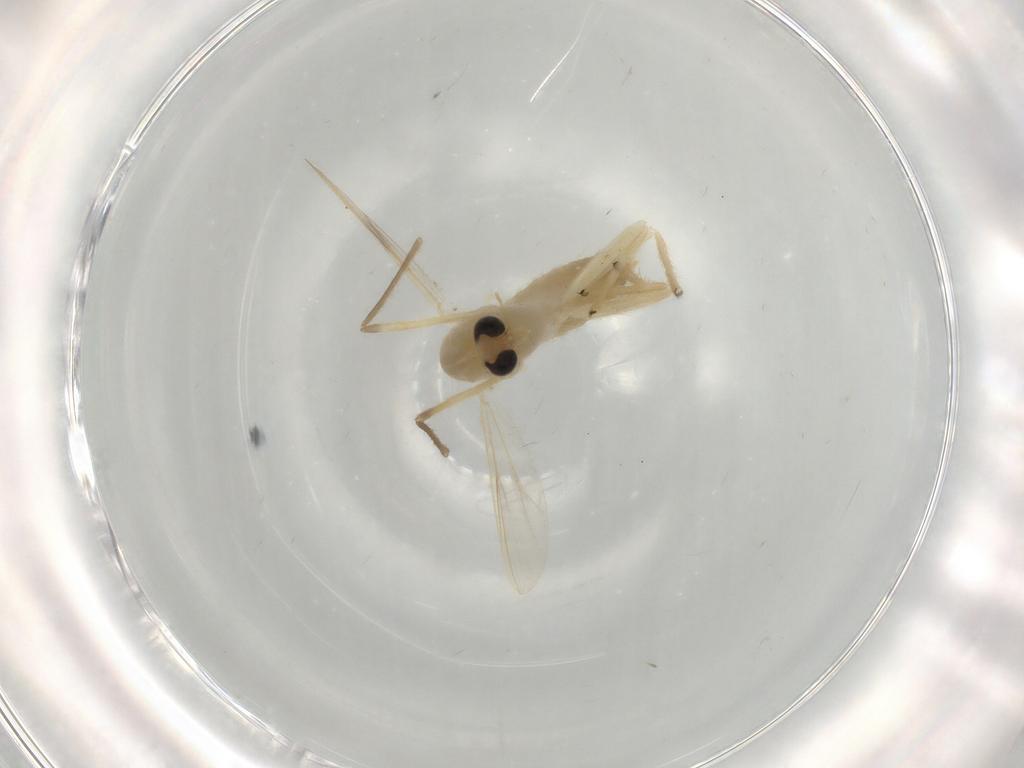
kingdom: Animalia
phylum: Arthropoda
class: Insecta
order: Diptera
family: Chironomidae
